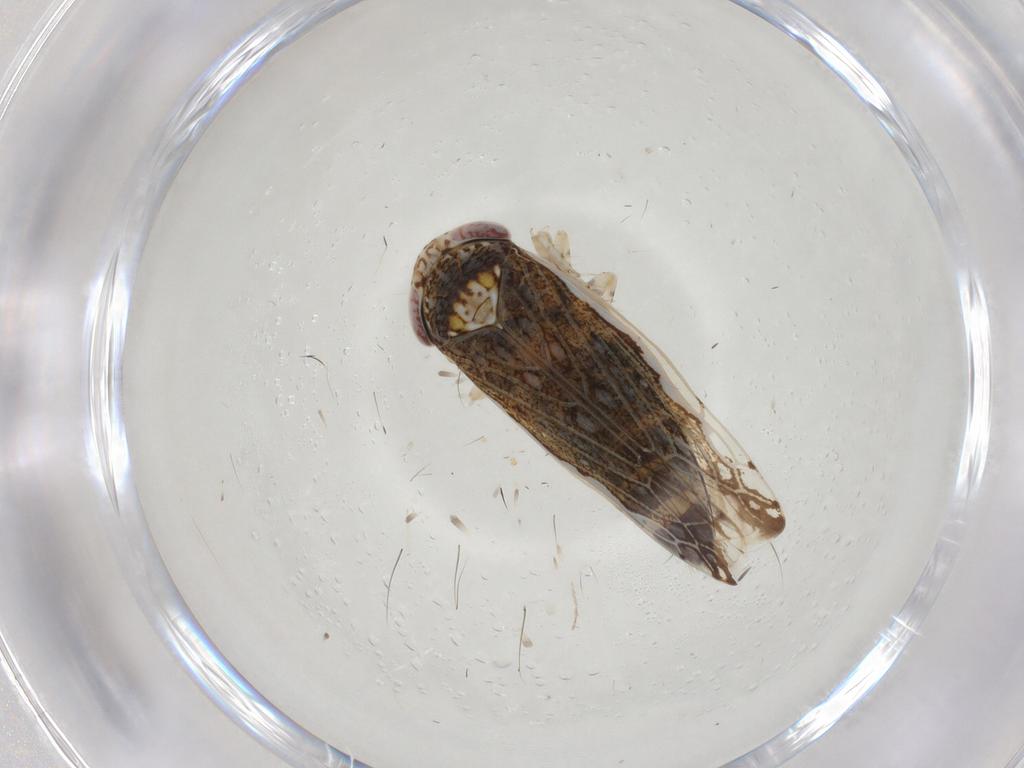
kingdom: Animalia
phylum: Arthropoda
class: Insecta
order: Hemiptera
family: Cicadellidae
